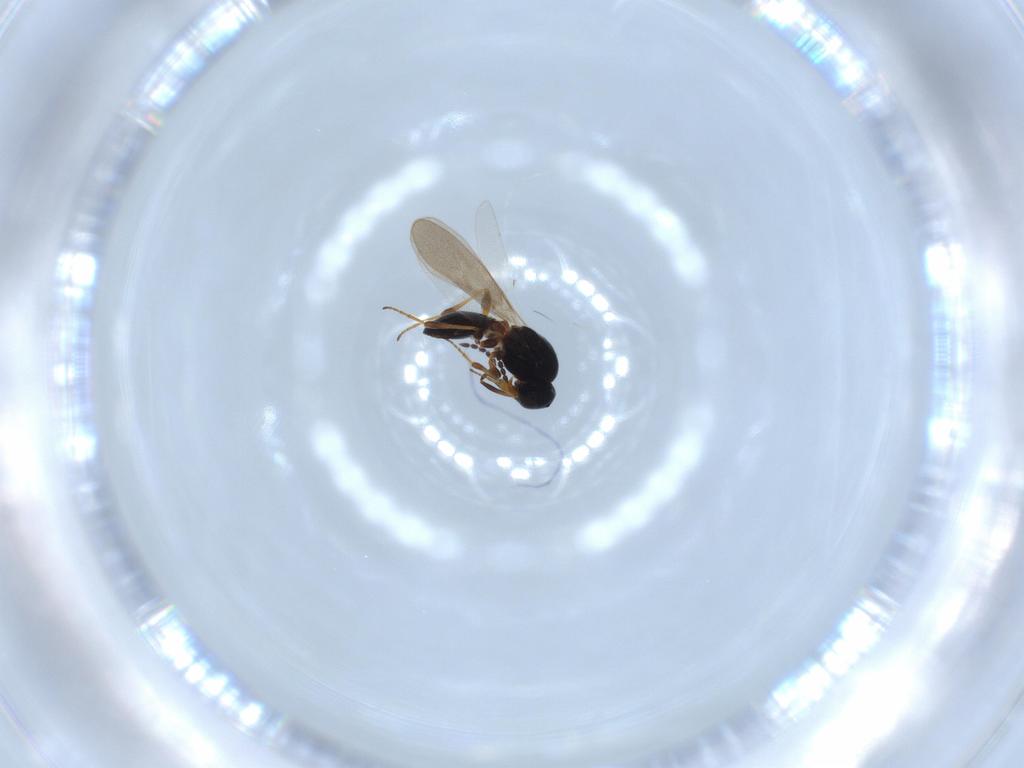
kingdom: Animalia
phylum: Arthropoda
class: Insecta
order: Hymenoptera
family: Platygastridae
